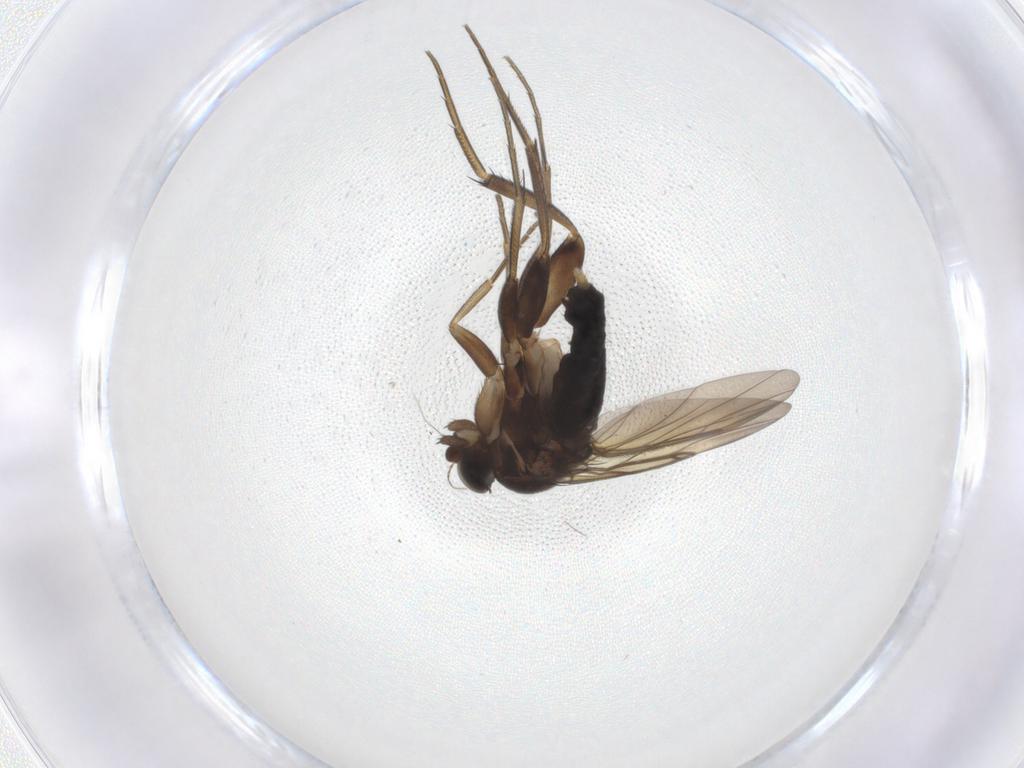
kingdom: Animalia
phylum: Arthropoda
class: Insecta
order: Diptera
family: Phoridae
